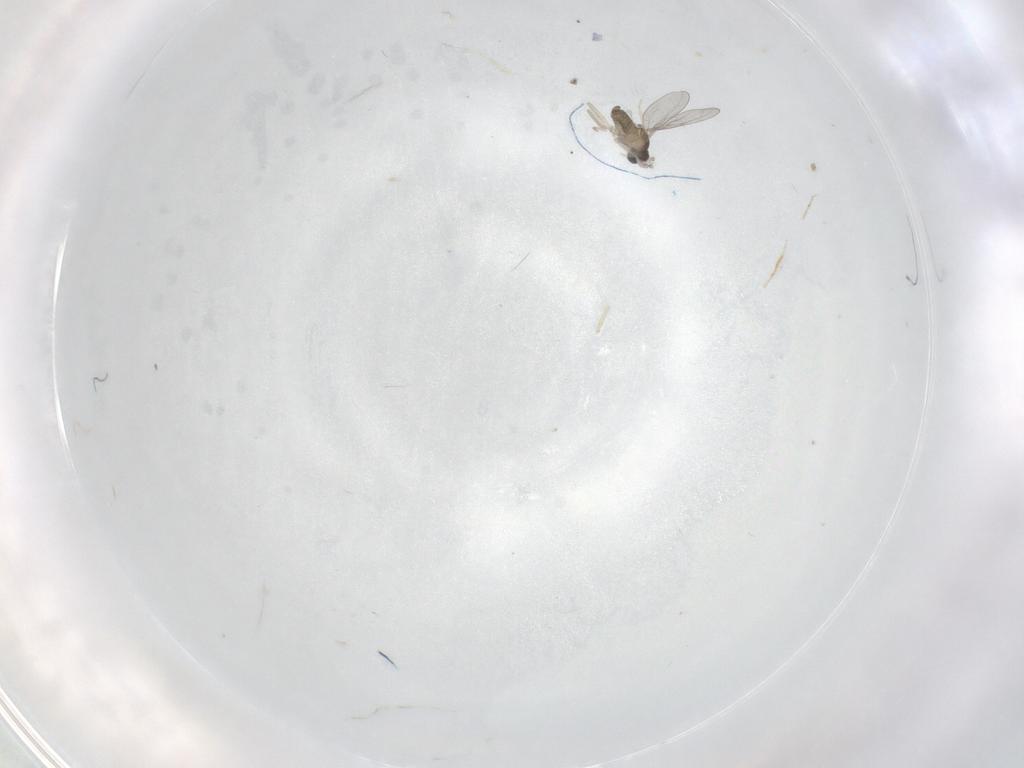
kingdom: Animalia
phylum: Arthropoda
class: Insecta
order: Diptera
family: Cecidomyiidae
